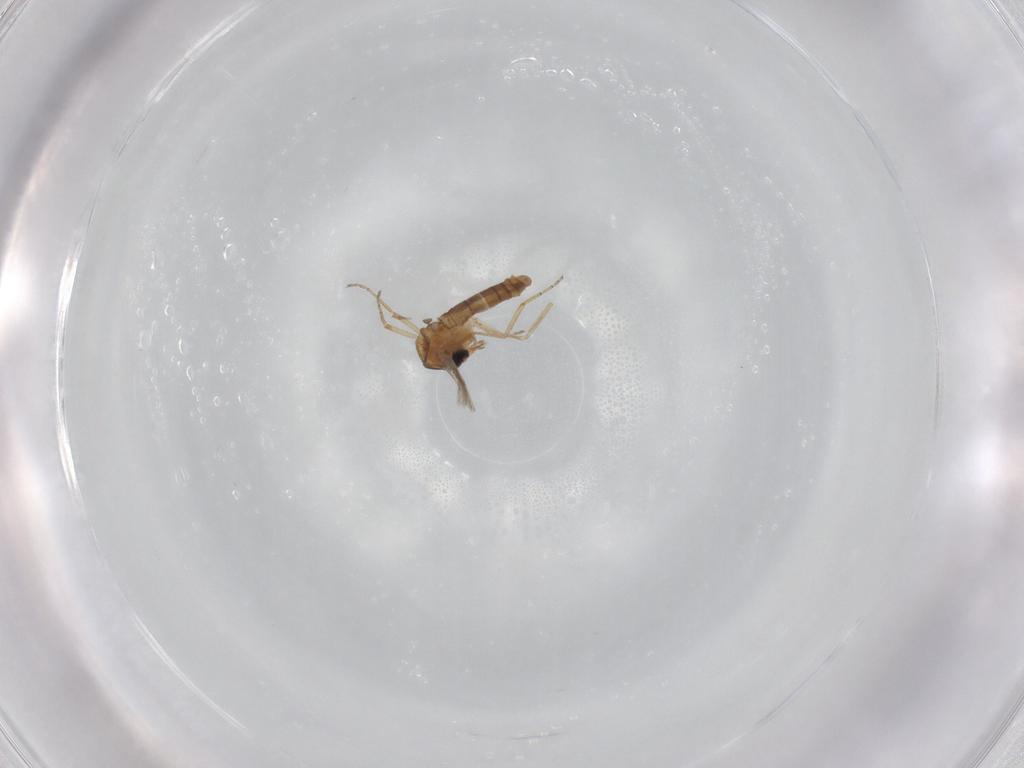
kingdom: Animalia
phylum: Arthropoda
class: Insecta
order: Diptera
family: Ceratopogonidae
